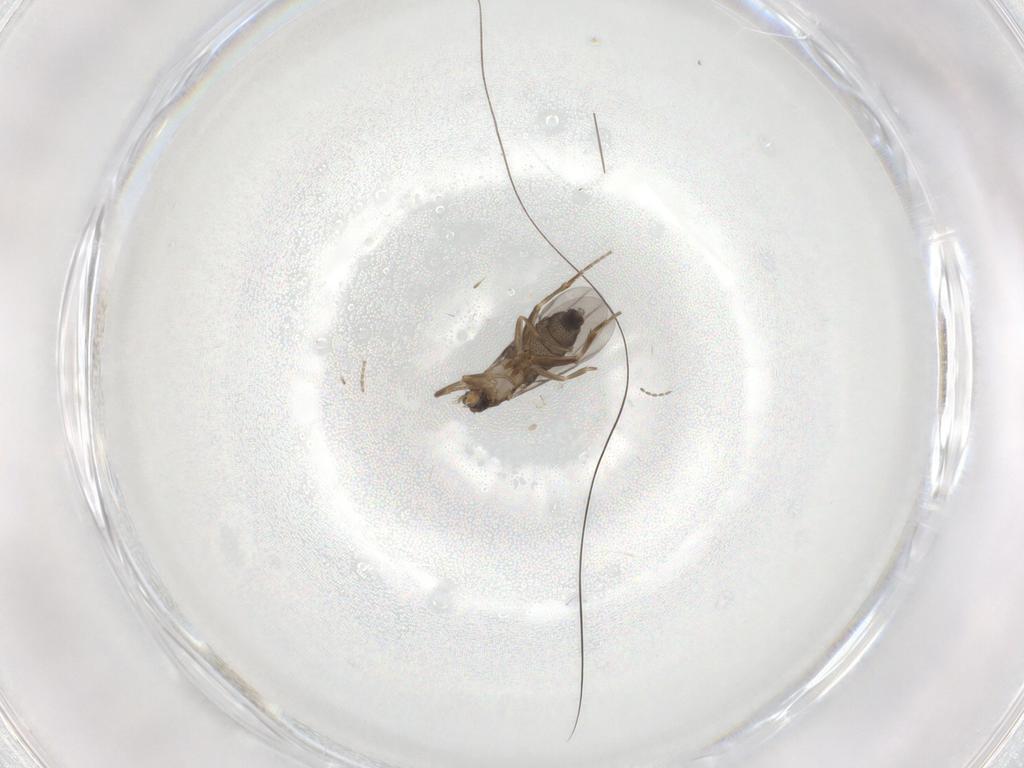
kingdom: Animalia
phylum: Arthropoda
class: Insecta
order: Diptera
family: Phoridae
